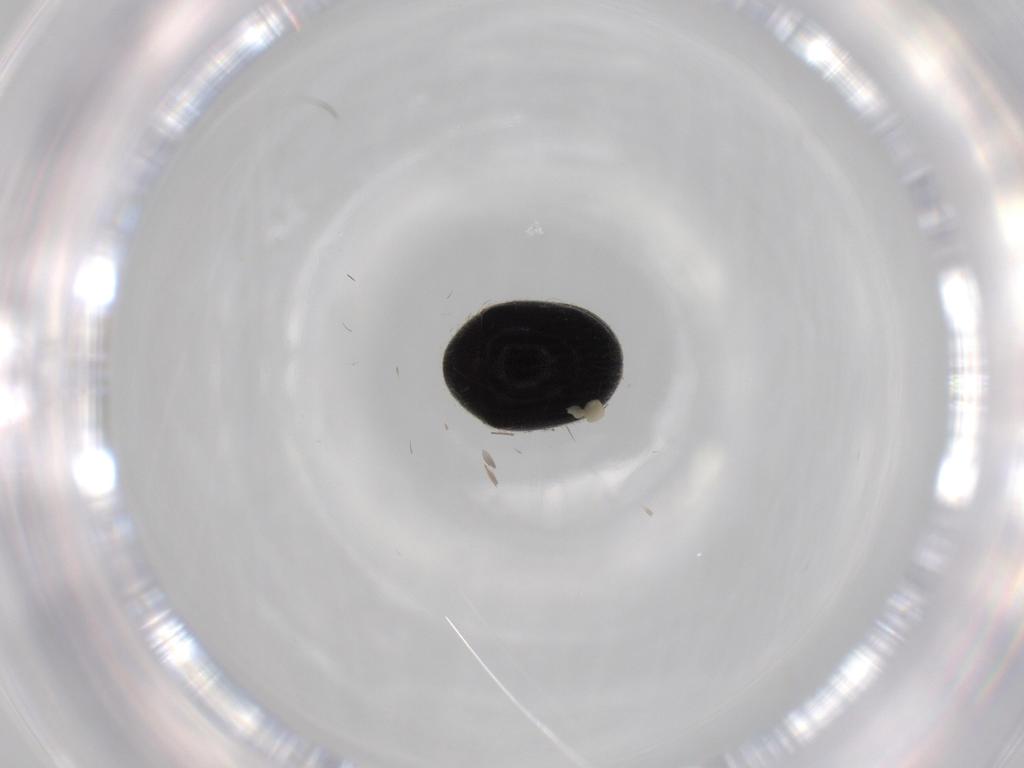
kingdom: Animalia
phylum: Arthropoda
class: Insecta
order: Coleoptera
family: Ptinidae
